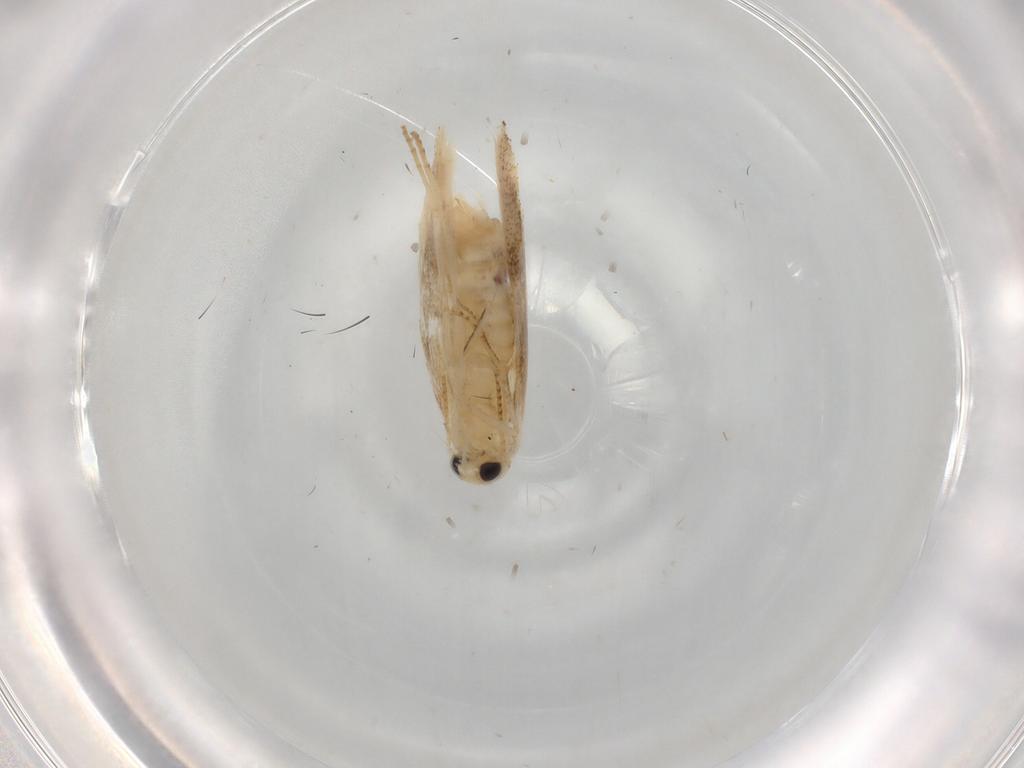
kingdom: Animalia
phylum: Arthropoda
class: Insecta
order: Lepidoptera
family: Bucculatricidae
